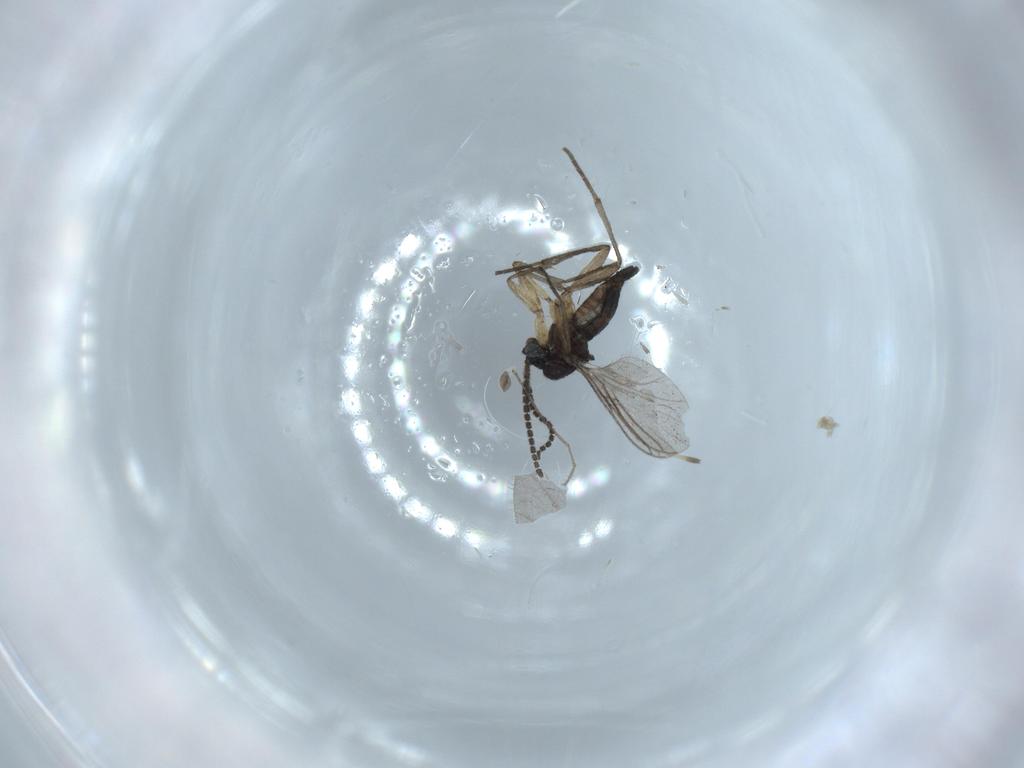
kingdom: Animalia
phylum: Arthropoda
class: Insecta
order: Diptera
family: Sciaridae
